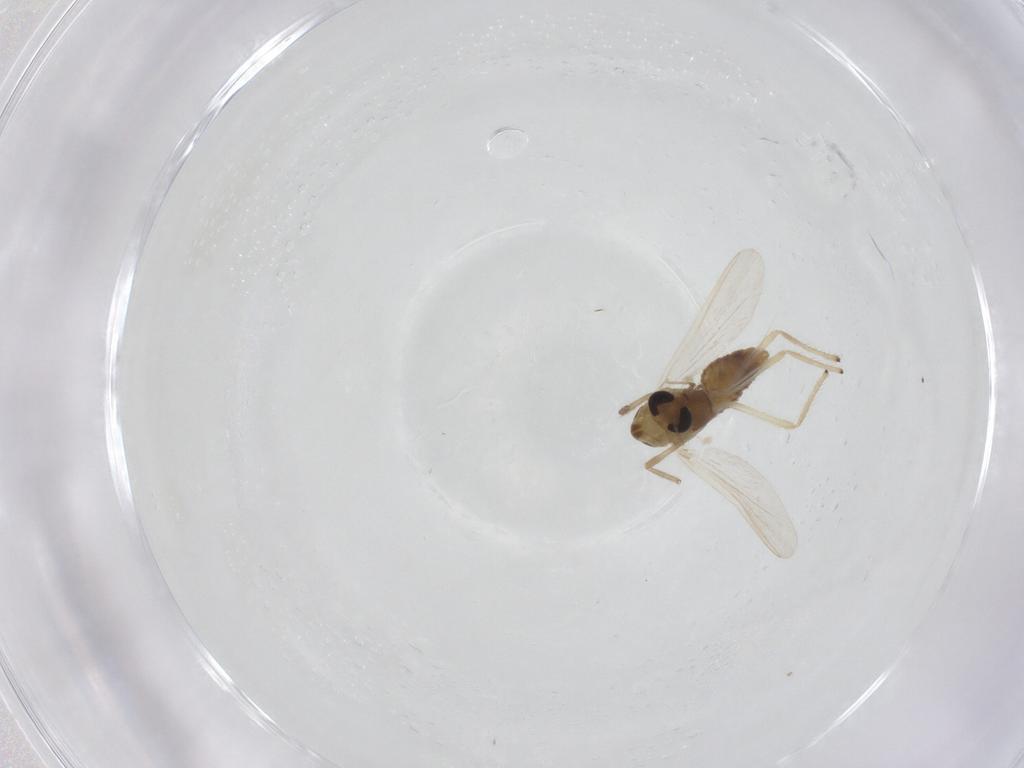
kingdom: Animalia
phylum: Arthropoda
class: Insecta
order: Diptera
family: Chironomidae
